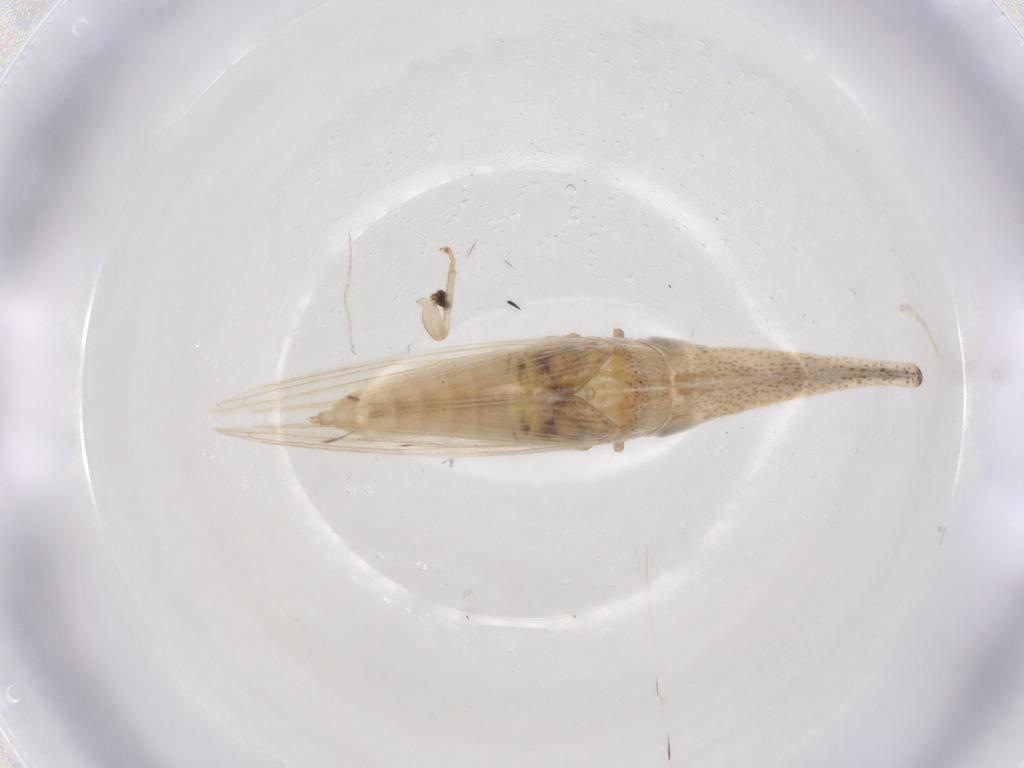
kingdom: Animalia
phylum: Arthropoda
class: Insecta
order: Hemiptera
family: Cicadellidae
